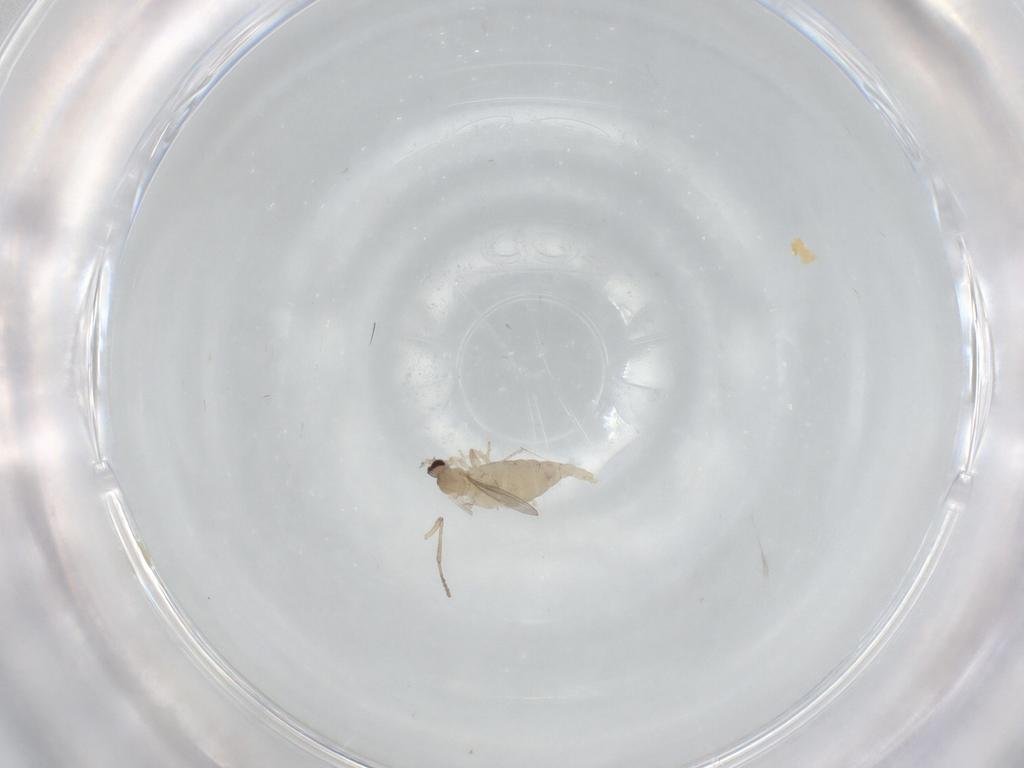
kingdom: Animalia
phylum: Arthropoda
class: Insecta
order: Diptera
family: Cecidomyiidae
